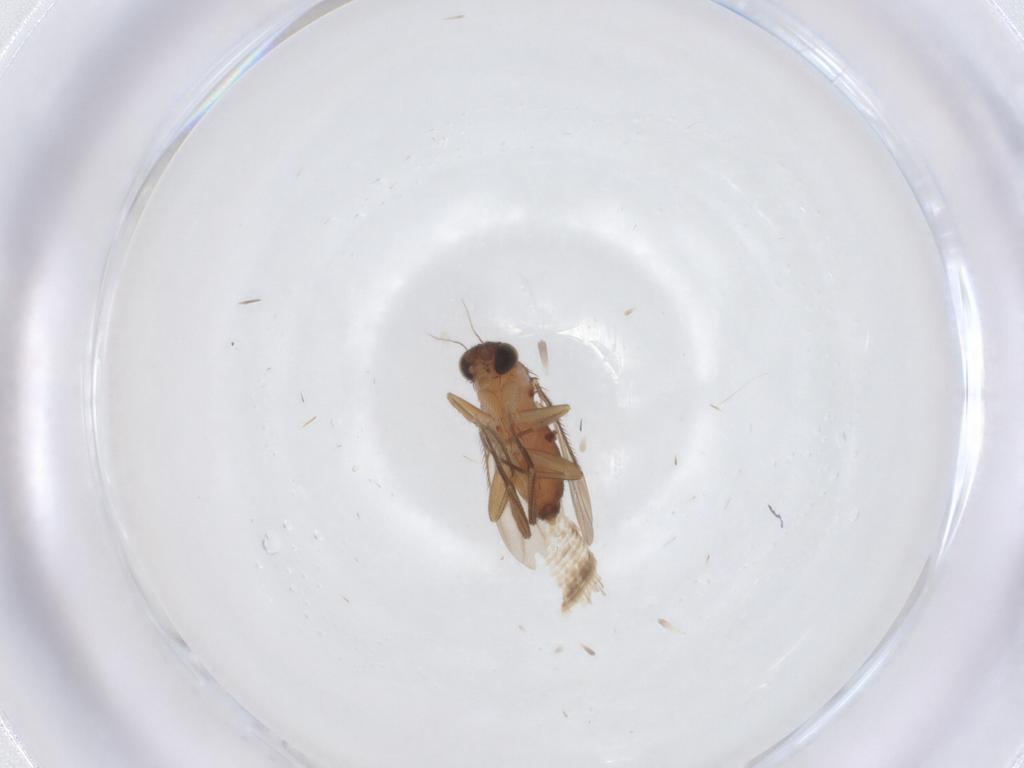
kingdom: Animalia
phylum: Arthropoda
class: Insecta
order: Diptera
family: Phoridae
